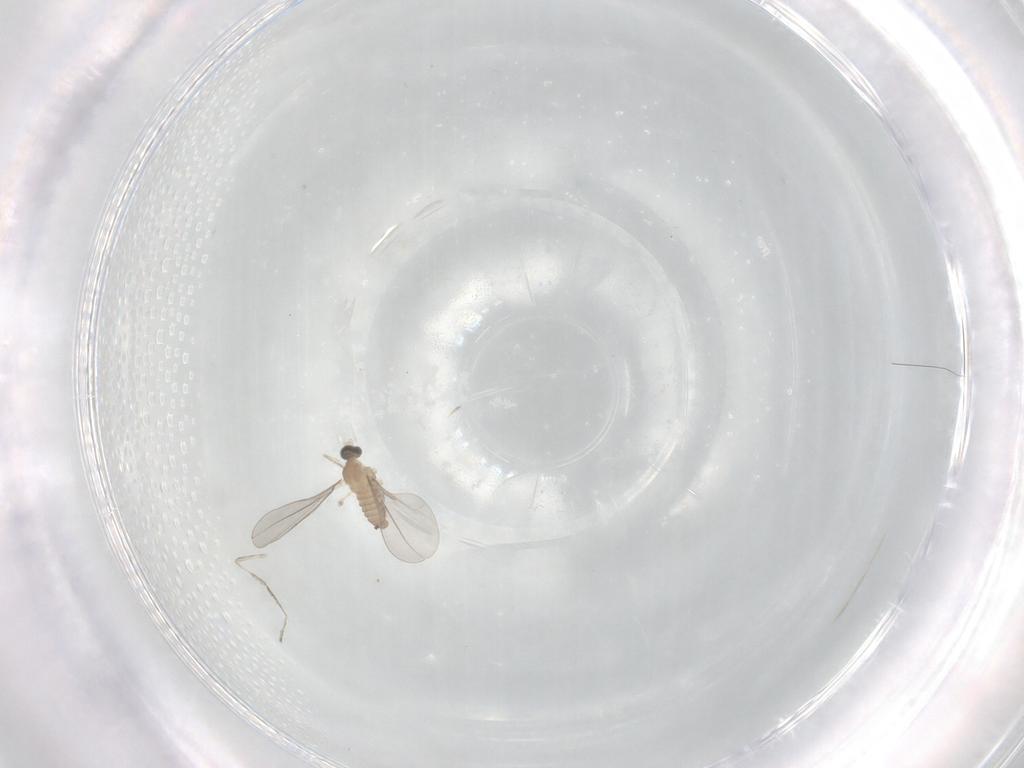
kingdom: Animalia
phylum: Arthropoda
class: Insecta
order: Diptera
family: Cecidomyiidae
